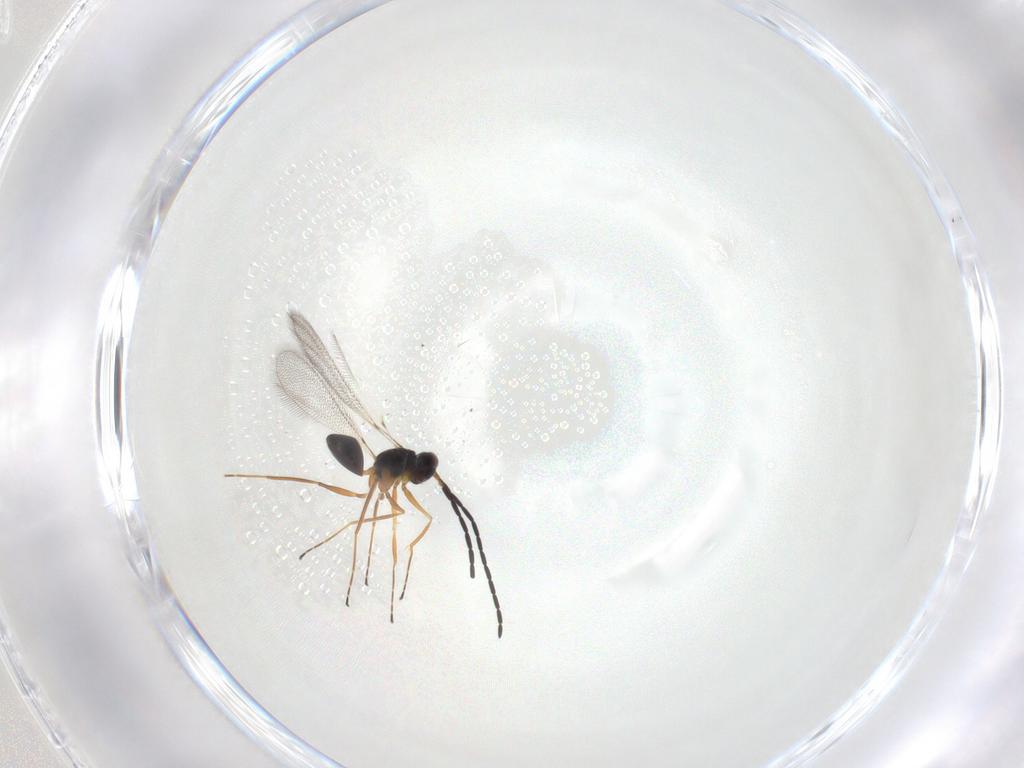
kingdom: Animalia
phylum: Arthropoda
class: Insecta
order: Hymenoptera
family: Mymaridae
